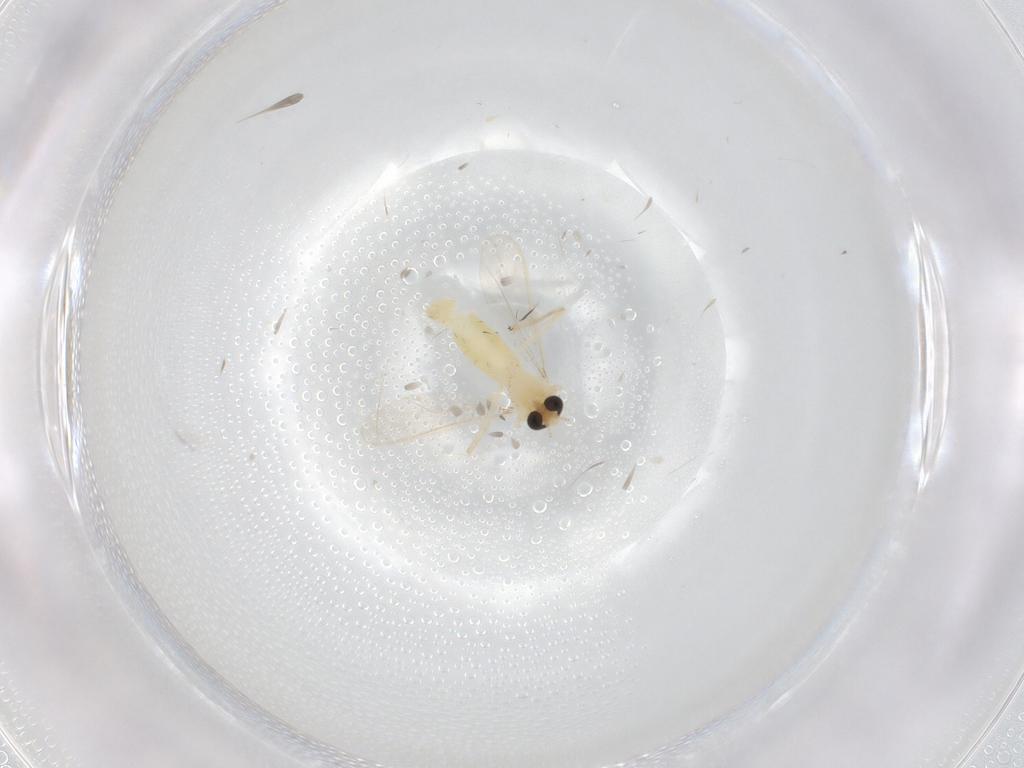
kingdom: Animalia
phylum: Arthropoda
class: Insecta
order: Diptera
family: Chironomidae
